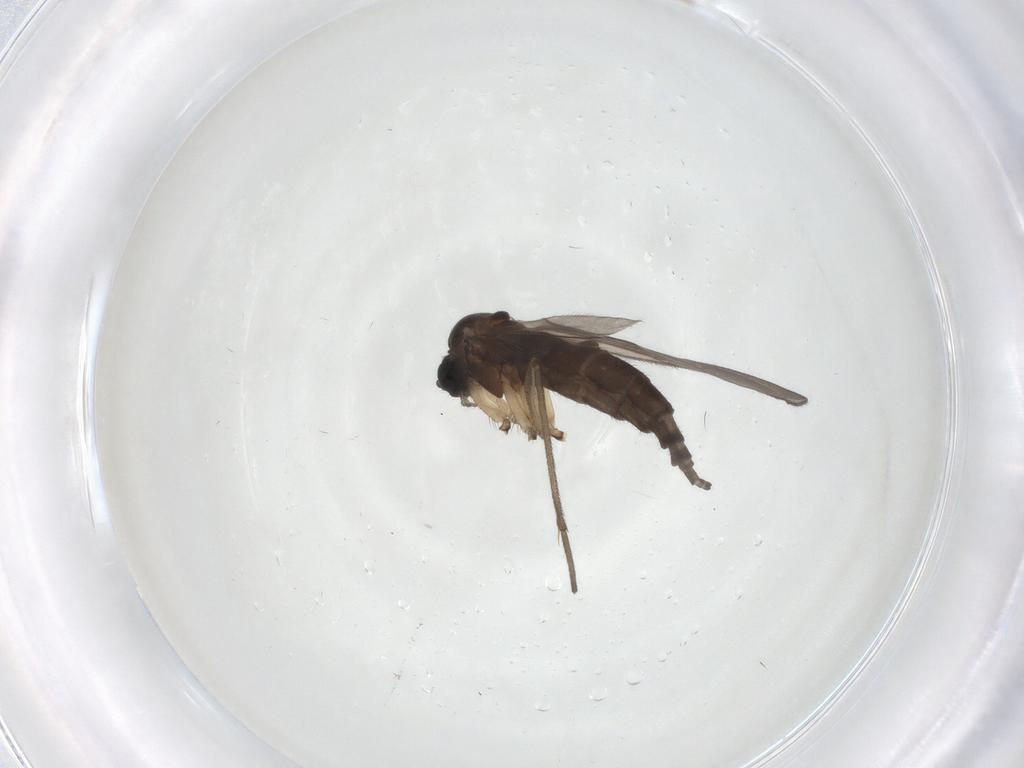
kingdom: Animalia
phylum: Arthropoda
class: Insecta
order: Diptera
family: Sciaridae
